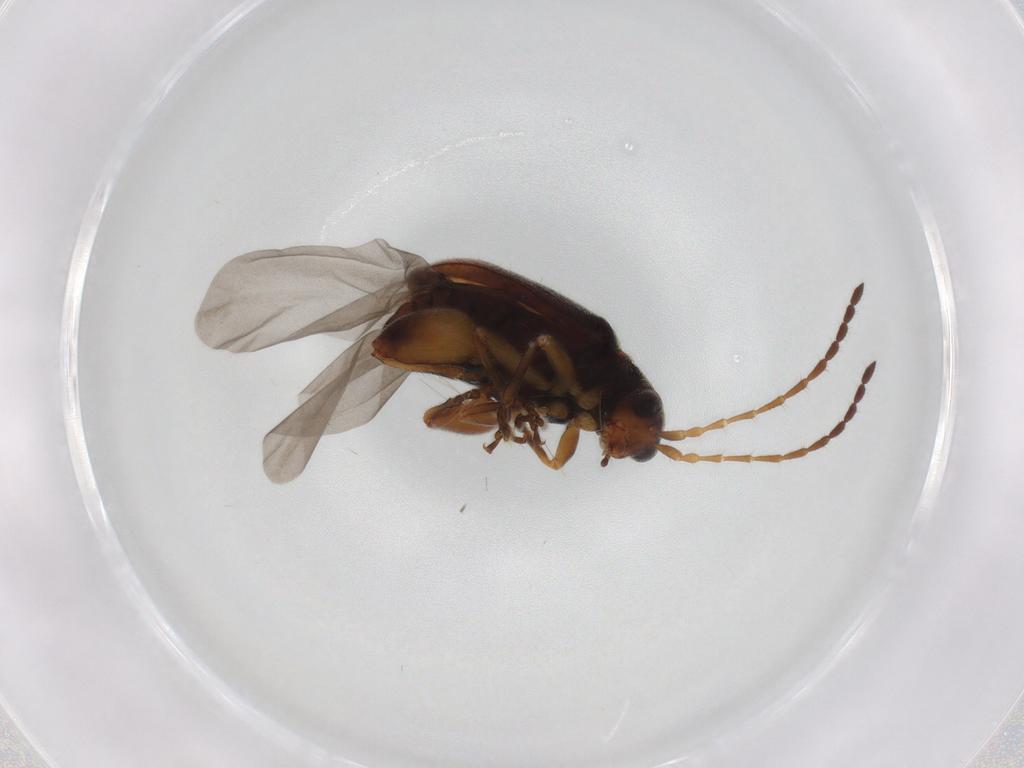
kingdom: Animalia
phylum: Arthropoda
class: Insecta
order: Coleoptera
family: Chrysomelidae
